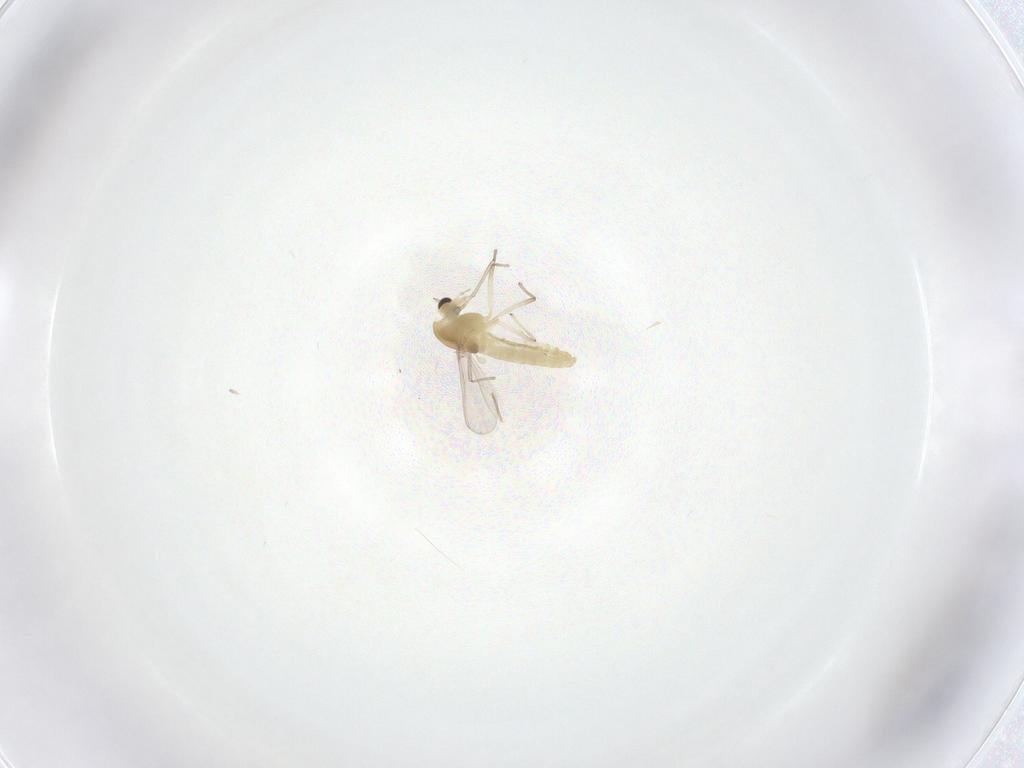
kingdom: Animalia
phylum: Arthropoda
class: Insecta
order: Diptera
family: Chironomidae
